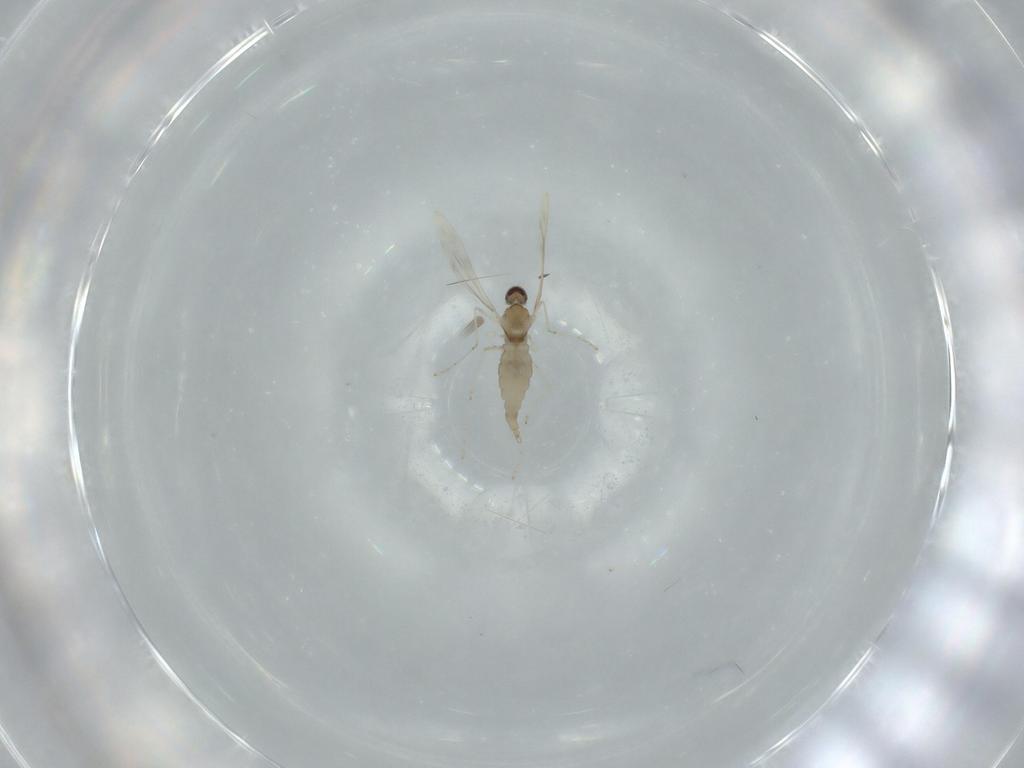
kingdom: Animalia
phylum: Arthropoda
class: Insecta
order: Diptera
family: Cecidomyiidae
